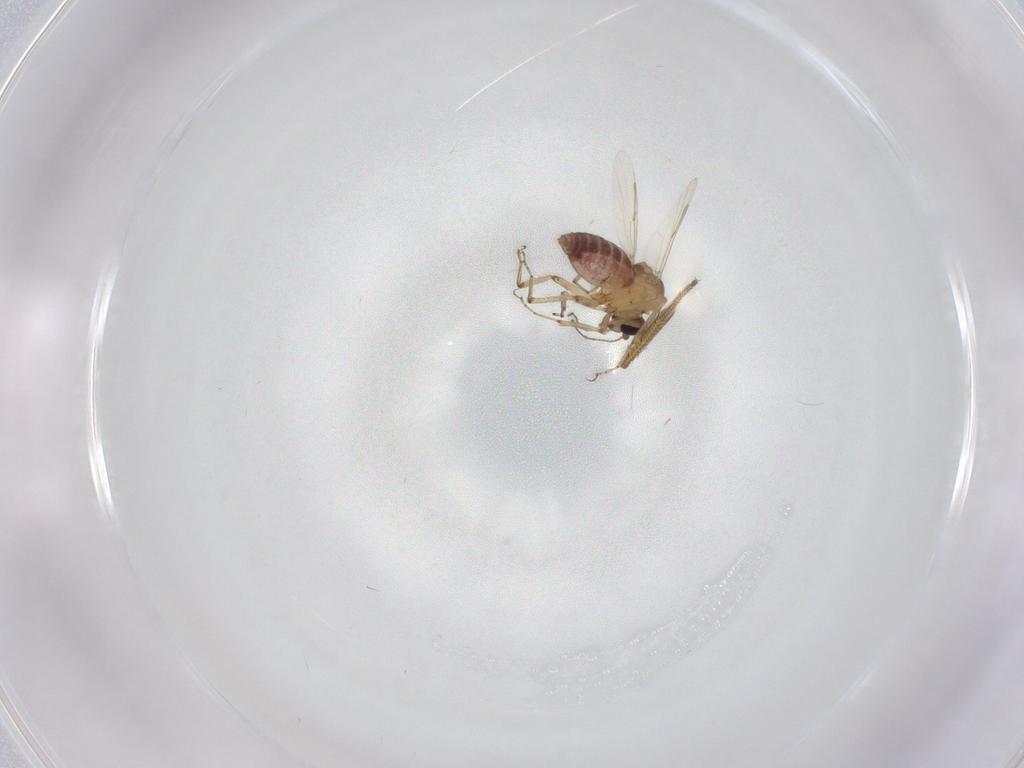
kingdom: Animalia
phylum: Arthropoda
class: Insecta
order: Diptera
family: Ceratopogonidae
